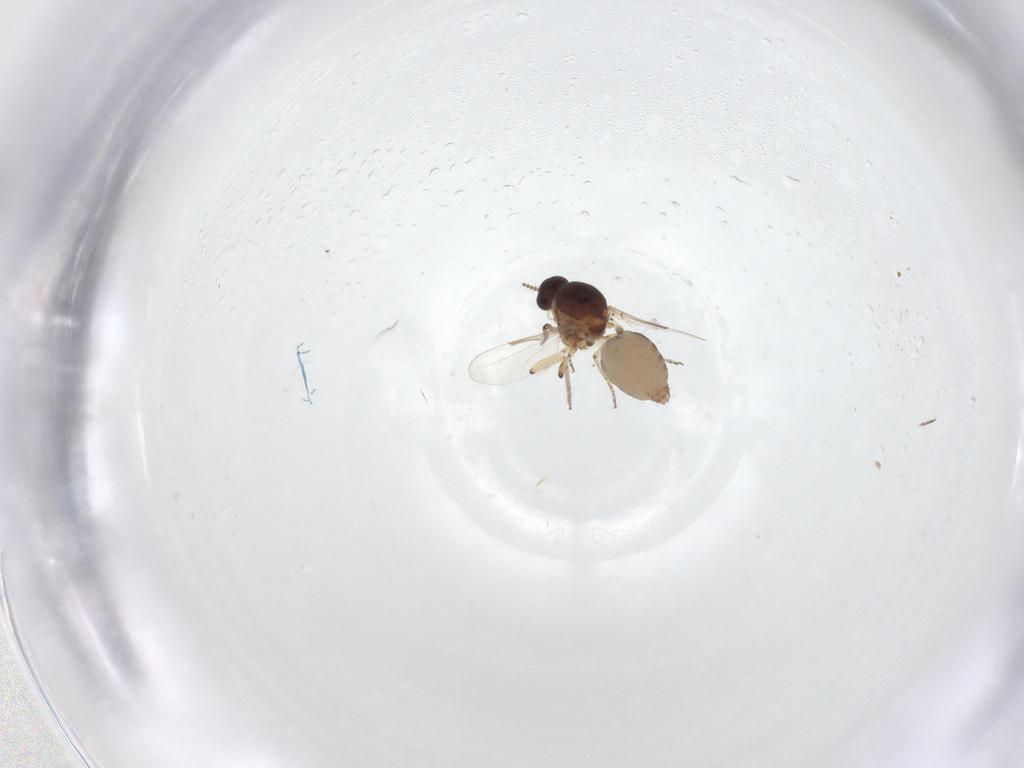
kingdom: Animalia
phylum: Arthropoda
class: Insecta
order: Diptera
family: Ceratopogonidae
